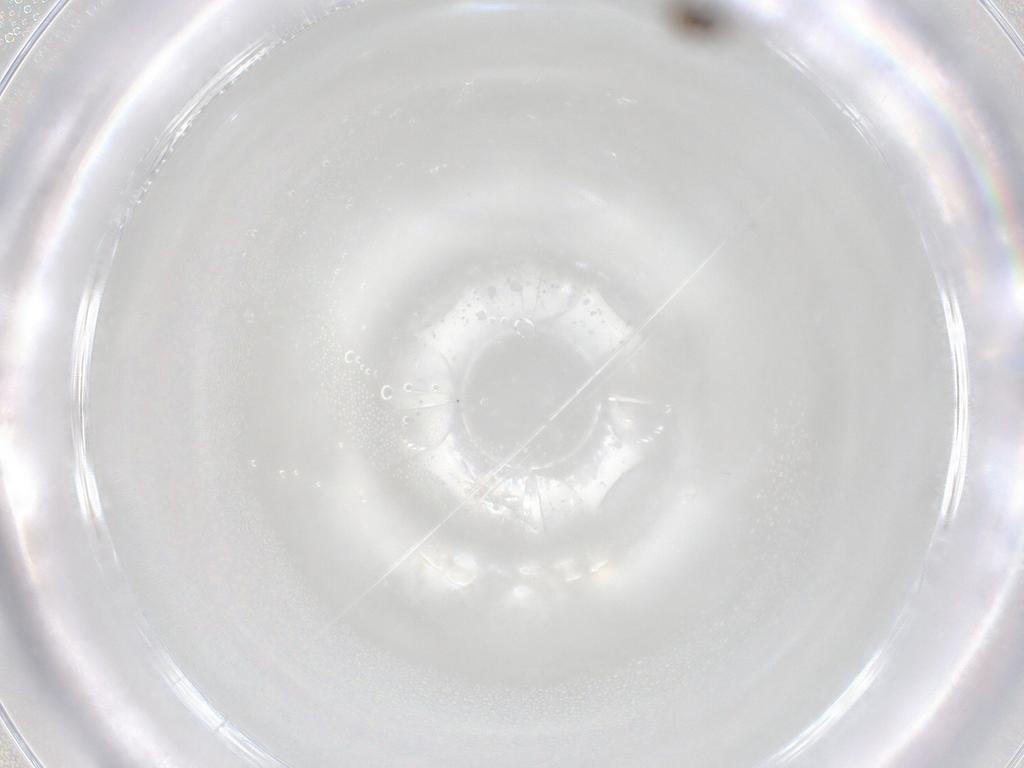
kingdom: Animalia
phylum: Arthropoda
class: Insecta
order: Diptera
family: Cecidomyiidae
